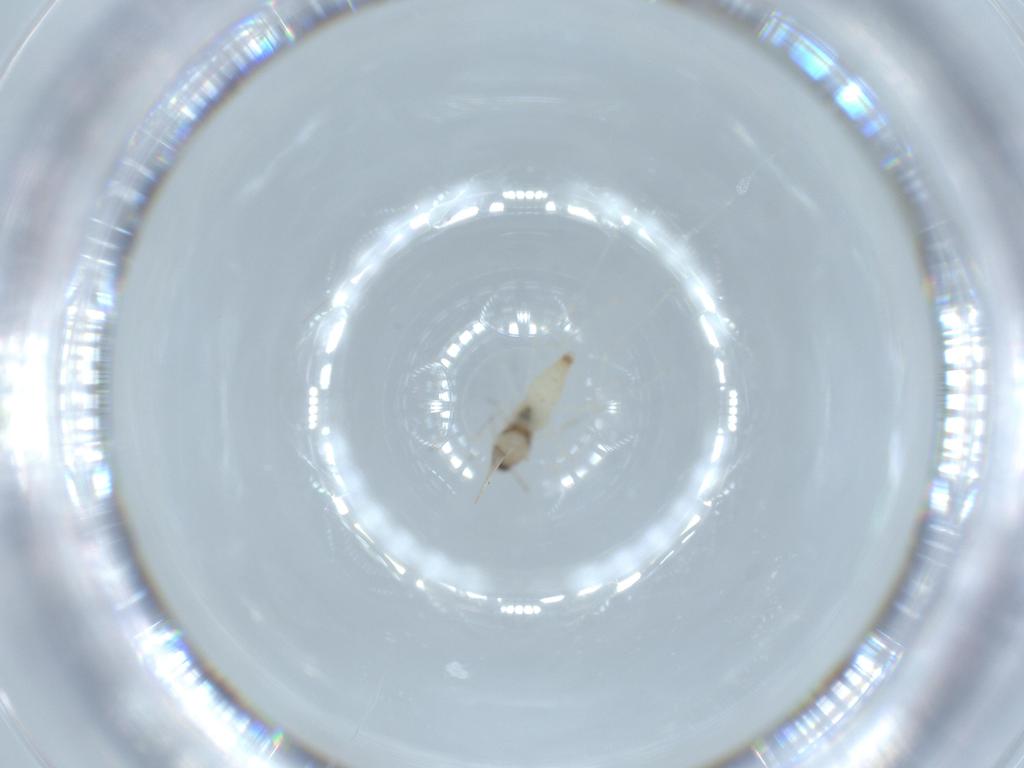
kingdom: Animalia
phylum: Arthropoda
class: Insecta
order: Diptera
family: Cecidomyiidae
